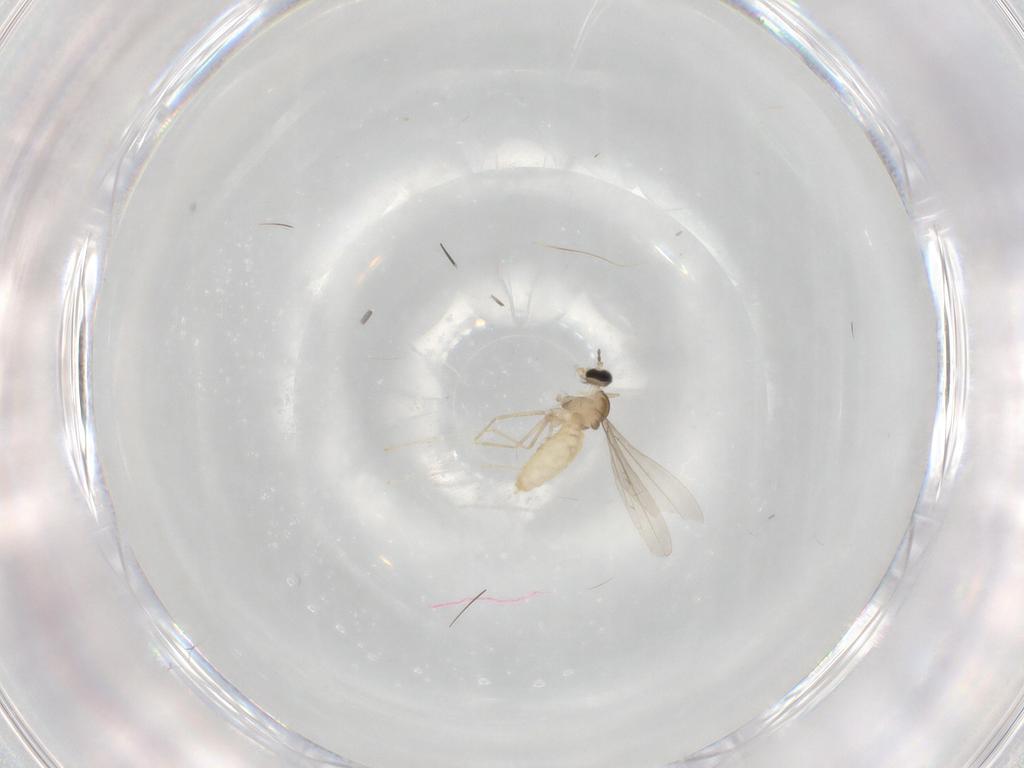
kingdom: Animalia
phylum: Arthropoda
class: Insecta
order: Diptera
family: Cecidomyiidae
